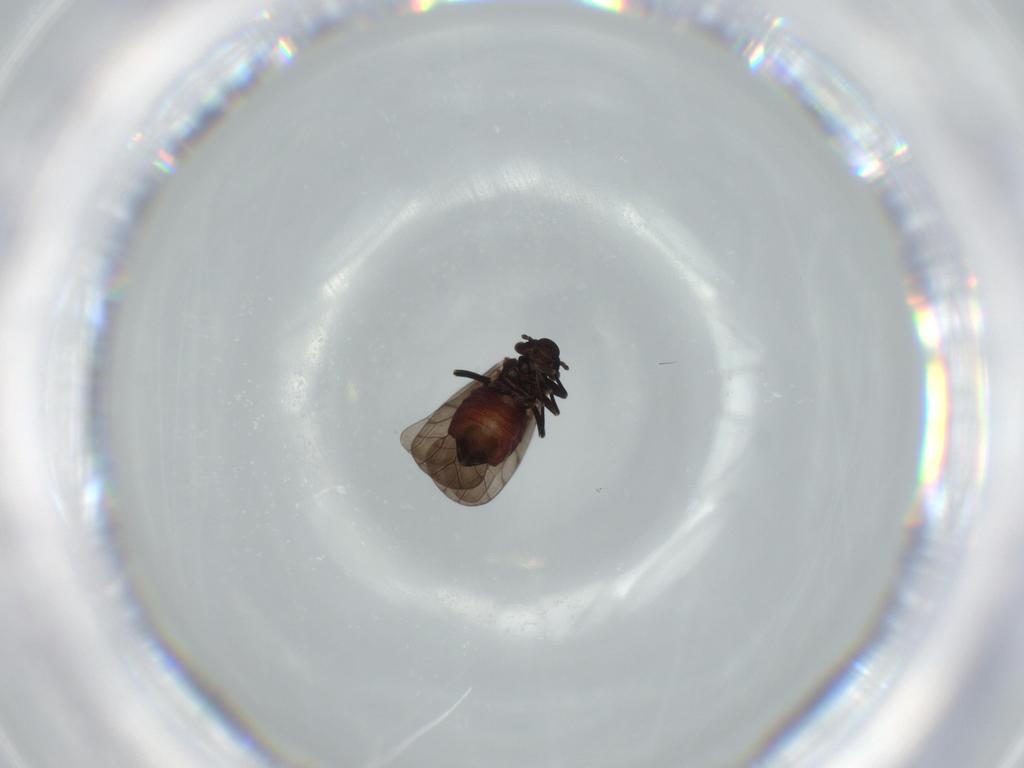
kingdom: Animalia
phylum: Arthropoda
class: Insecta
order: Psocodea
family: Lepidopsocidae
